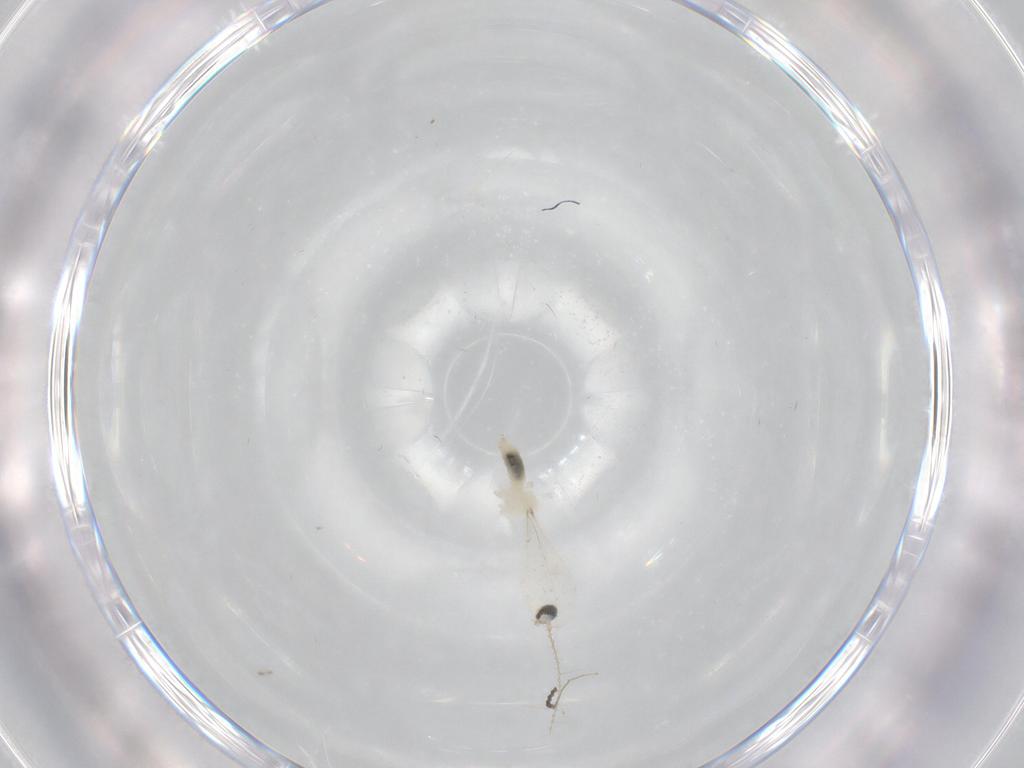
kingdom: Animalia
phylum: Arthropoda
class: Insecta
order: Diptera
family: Cecidomyiidae
